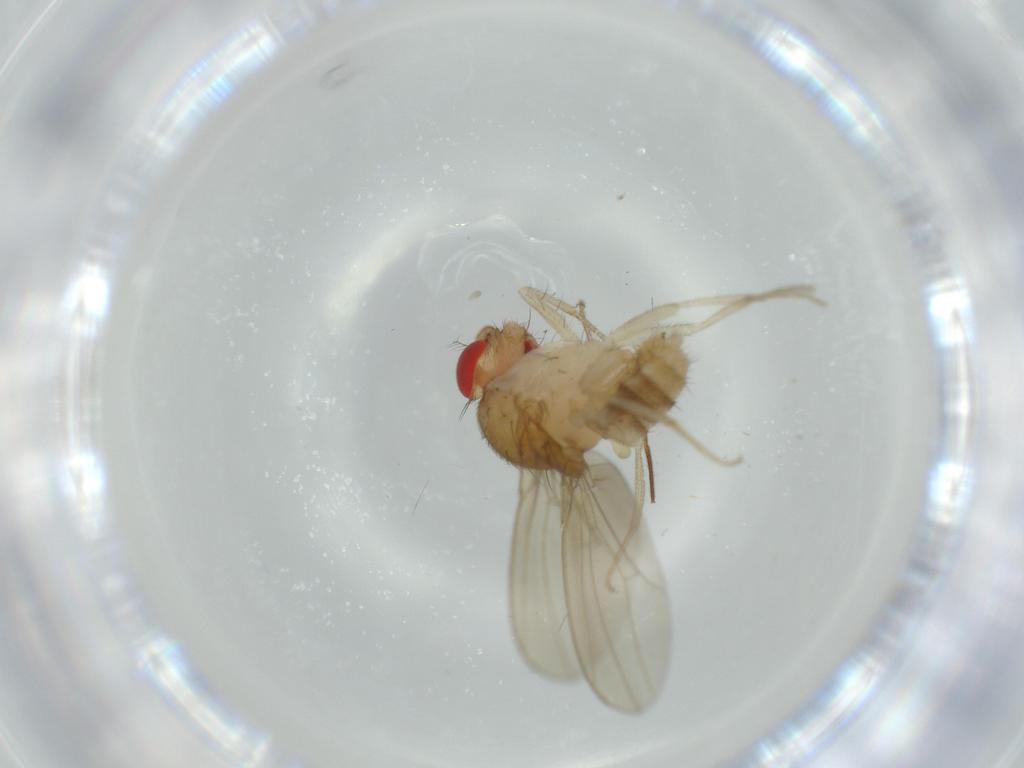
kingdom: Animalia
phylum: Arthropoda
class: Insecta
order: Diptera
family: Drosophilidae
